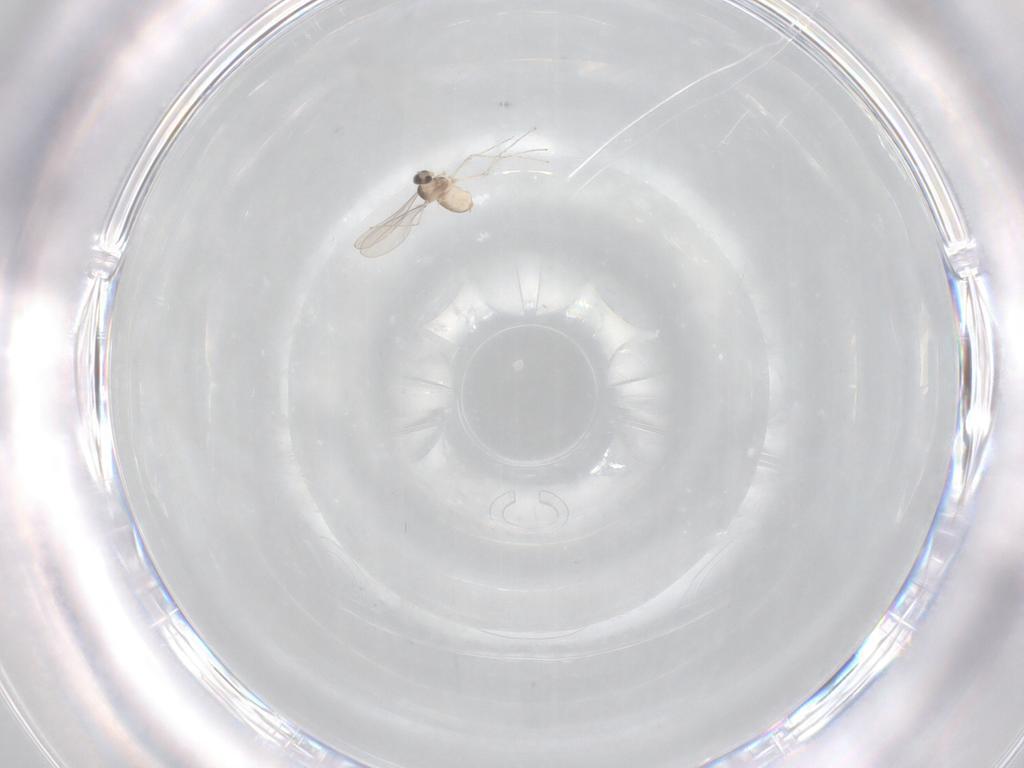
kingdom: Animalia
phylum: Arthropoda
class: Insecta
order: Diptera
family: Cecidomyiidae
